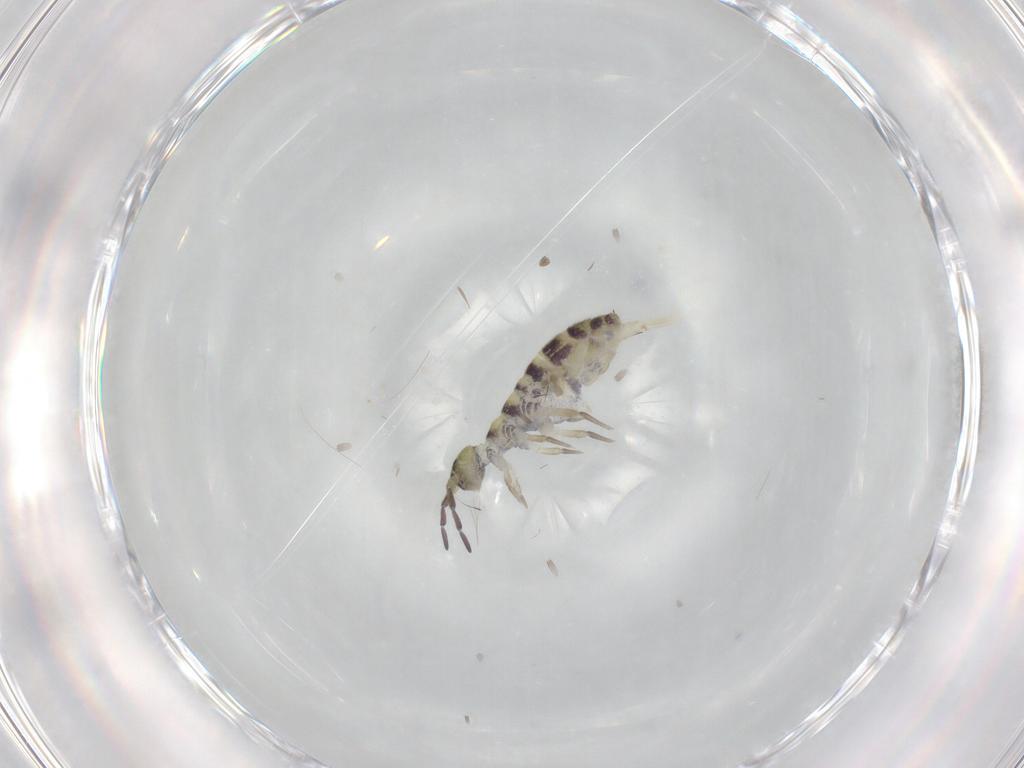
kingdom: Animalia
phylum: Arthropoda
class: Collembola
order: Entomobryomorpha
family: Isotomidae
